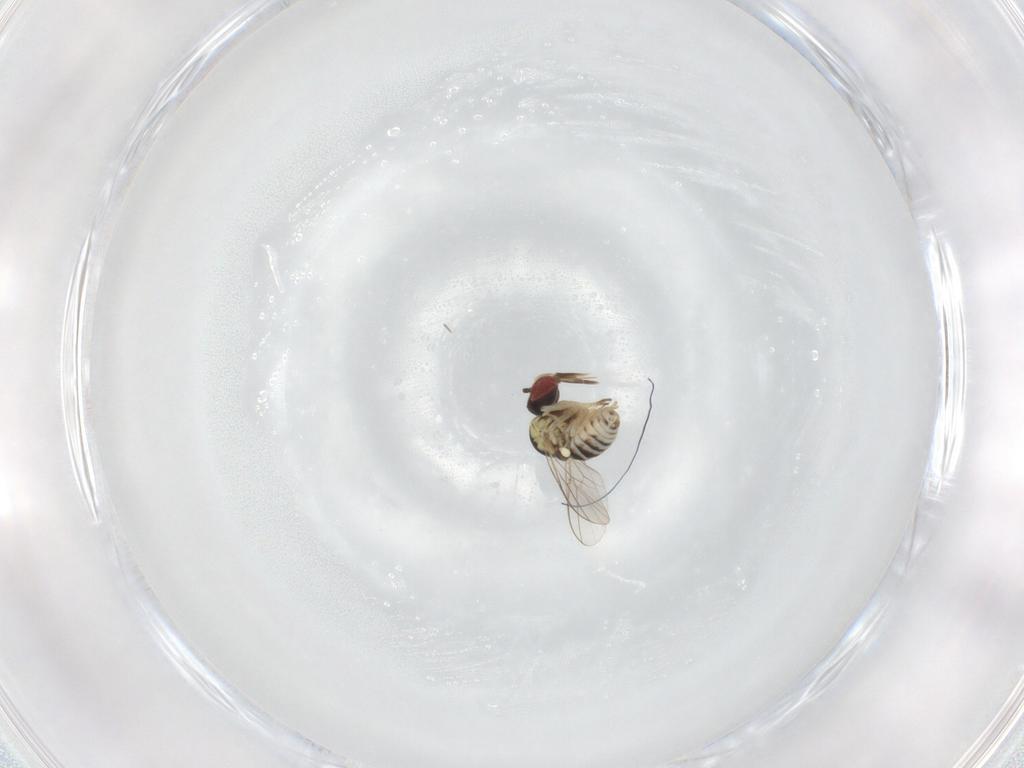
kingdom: Animalia
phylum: Arthropoda
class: Insecta
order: Diptera
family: Bombyliidae
